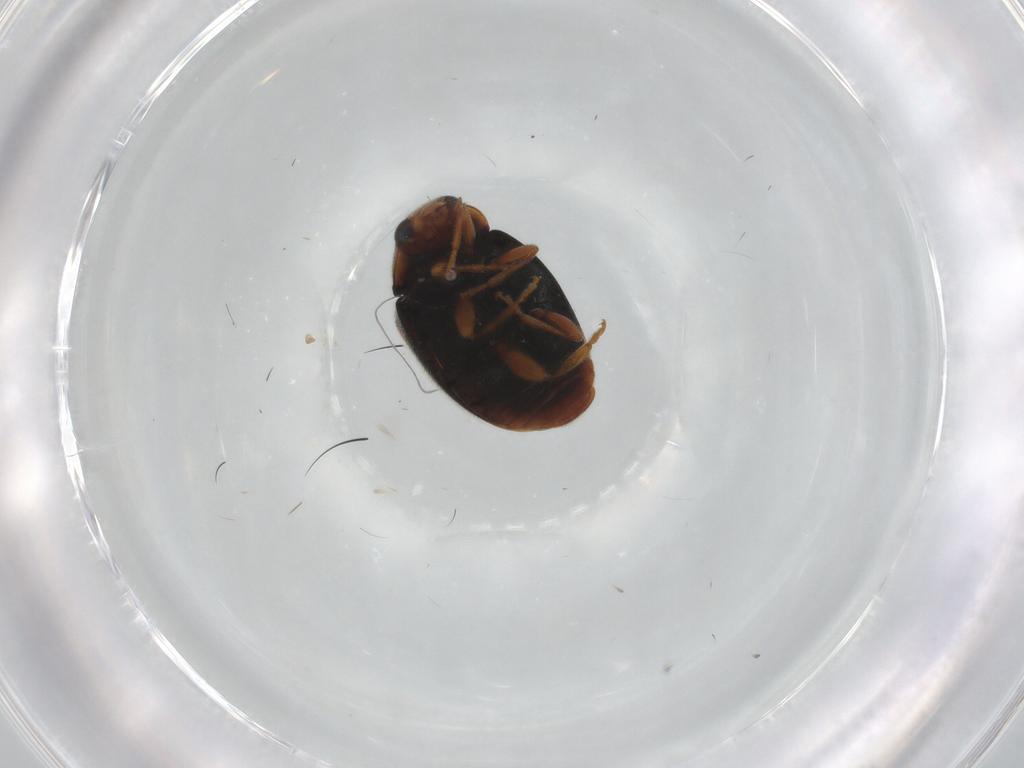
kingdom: Animalia
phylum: Arthropoda
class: Insecta
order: Coleoptera
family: Coccinellidae
